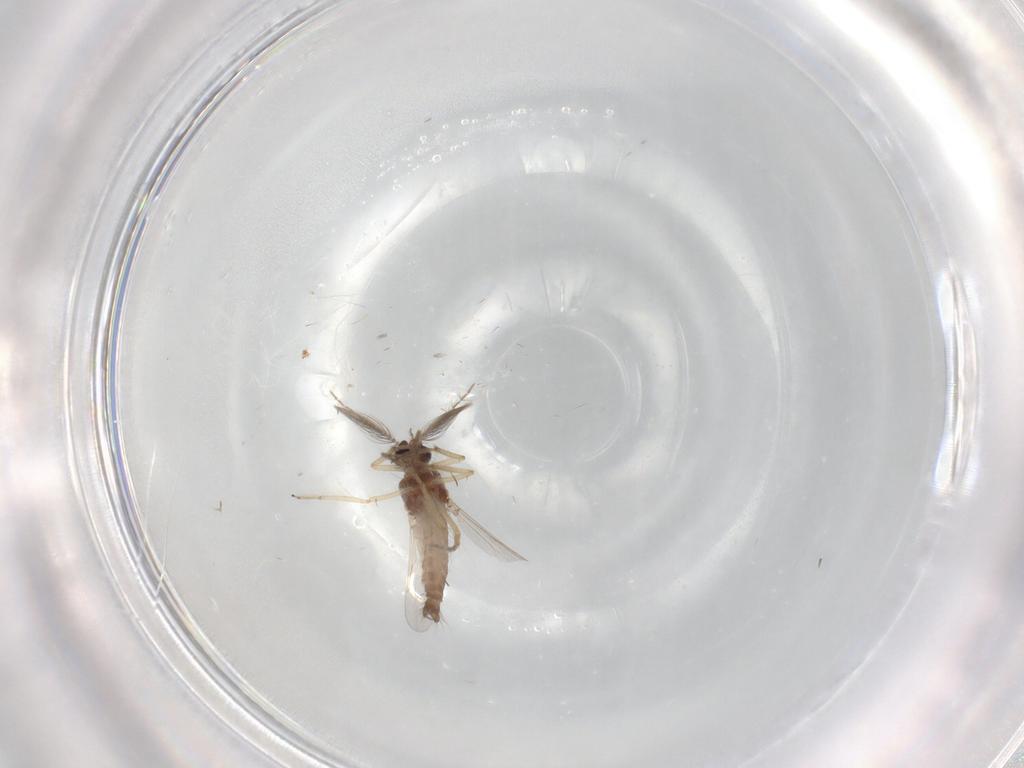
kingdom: Animalia
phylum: Arthropoda
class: Insecta
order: Diptera
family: Ceratopogonidae
